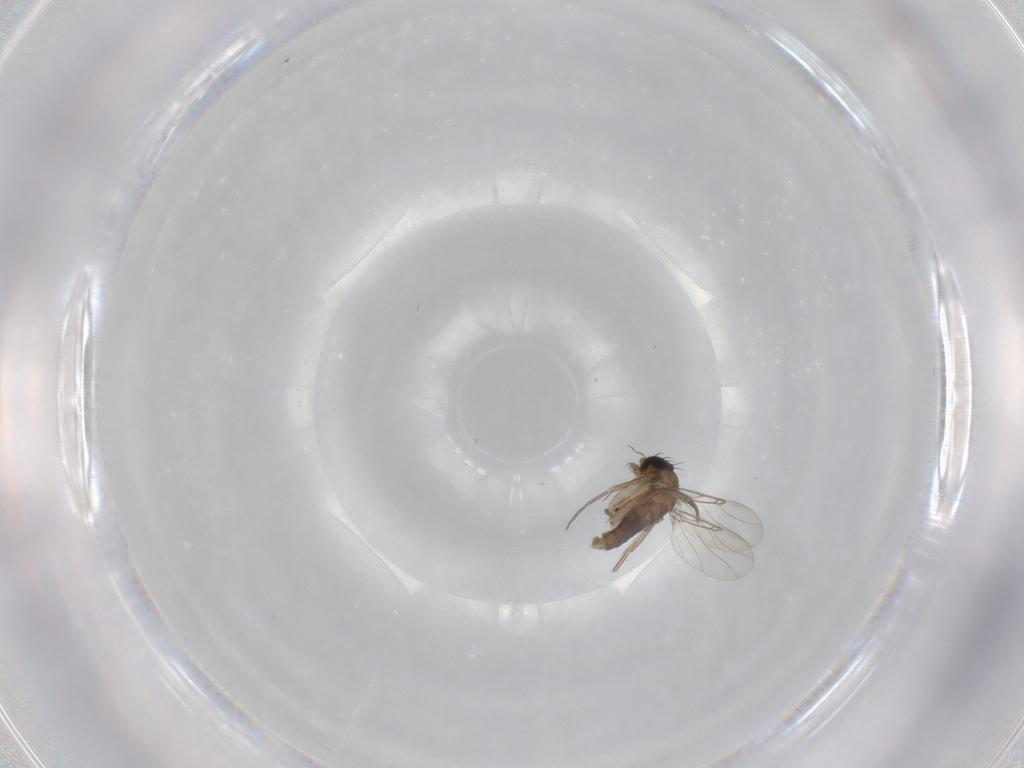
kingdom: Animalia
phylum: Arthropoda
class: Insecta
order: Diptera
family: Phoridae
